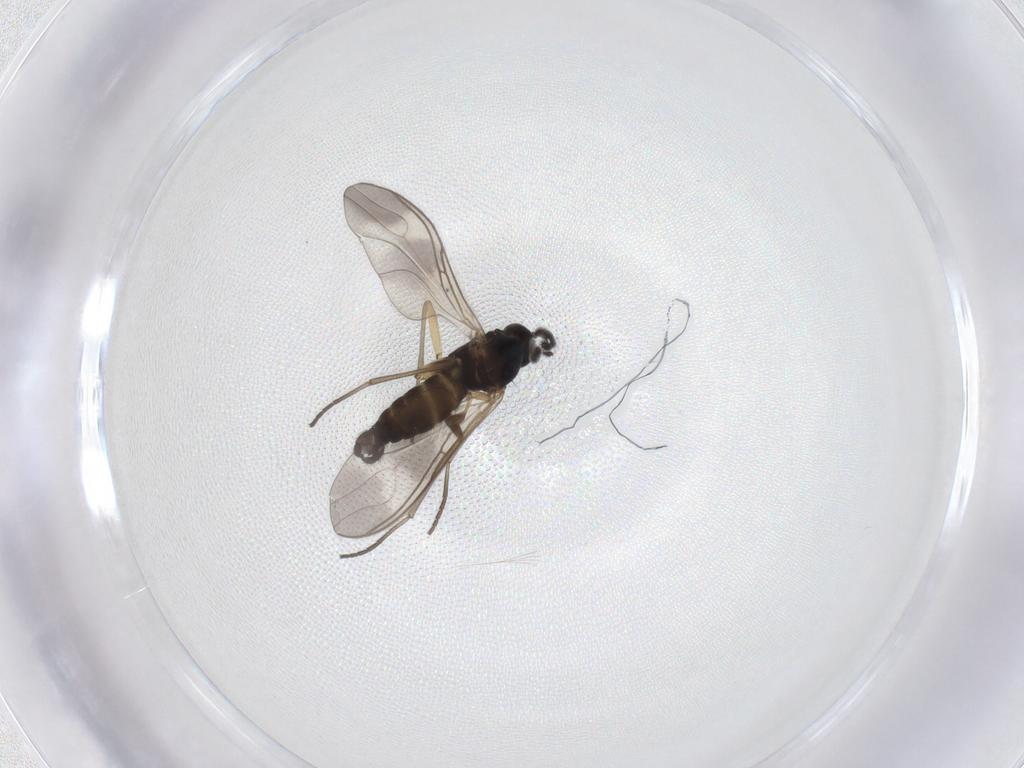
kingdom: Animalia
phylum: Arthropoda
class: Insecta
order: Diptera
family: Sciaridae
